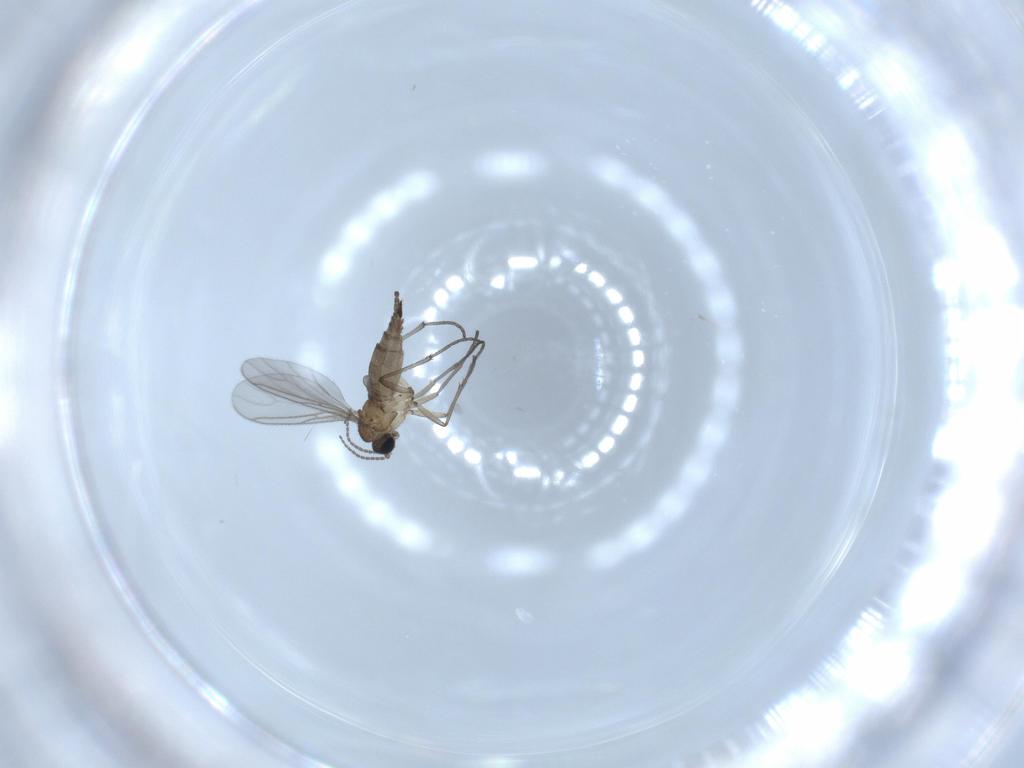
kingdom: Animalia
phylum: Arthropoda
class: Insecta
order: Diptera
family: Sciaridae
